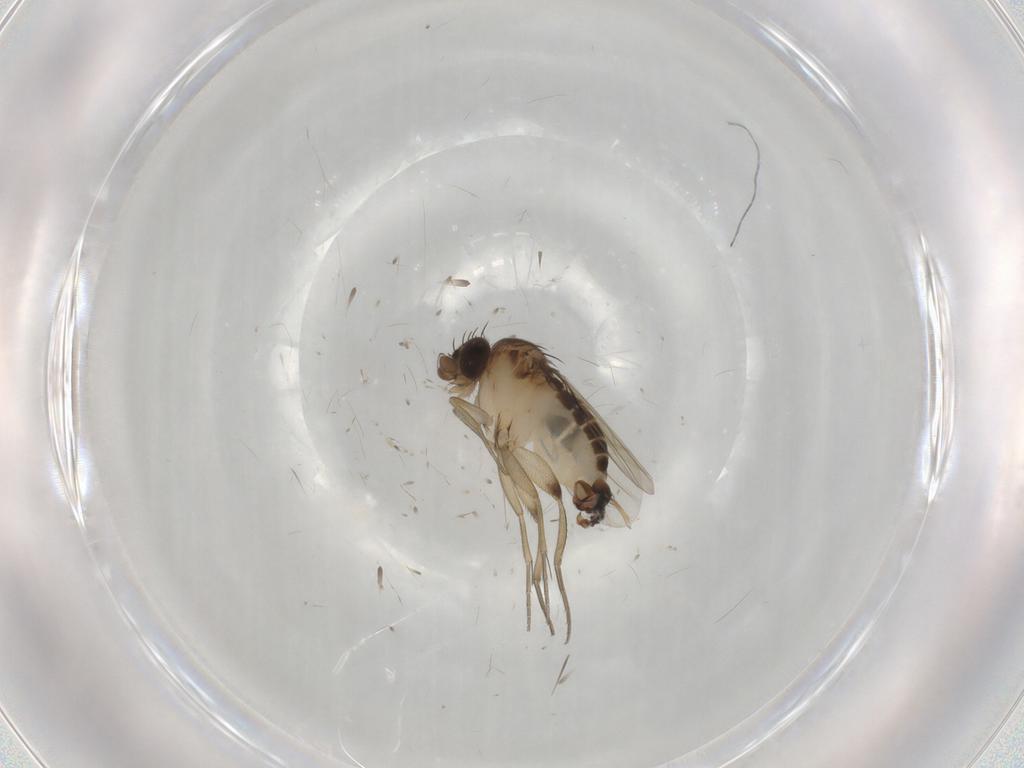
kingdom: Animalia
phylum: Arthropoda
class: Insecta
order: Diptera
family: Phoridae
